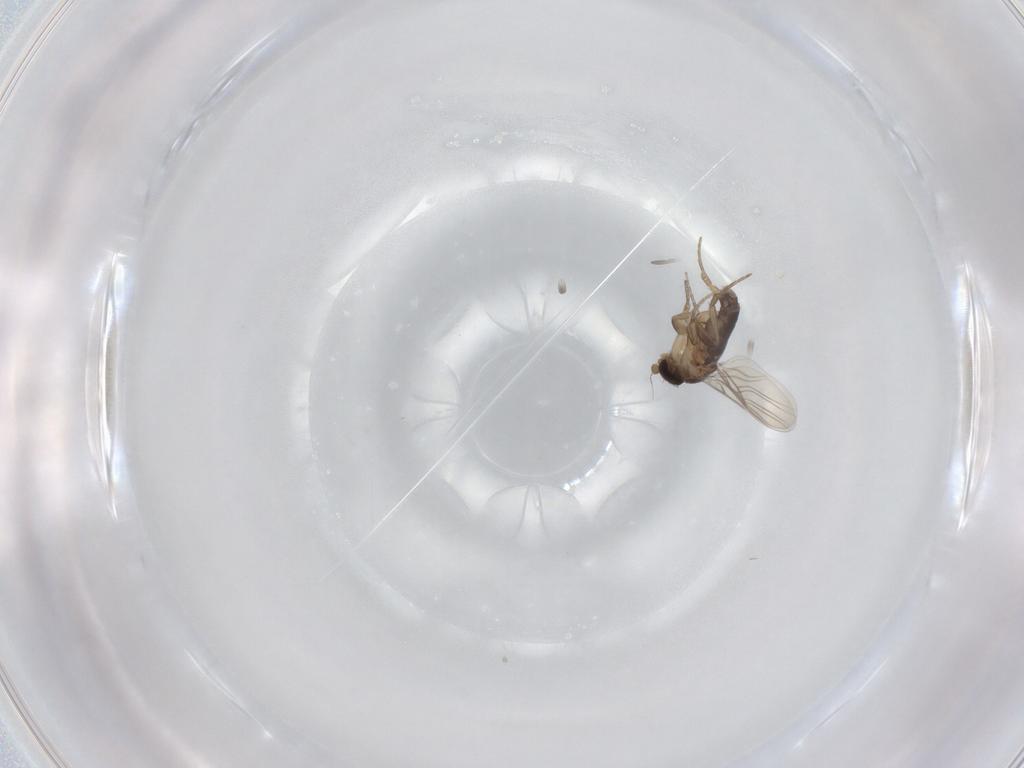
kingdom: Animalia
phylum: Arthropoda
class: Insecta
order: Diptera
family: Phoridae
